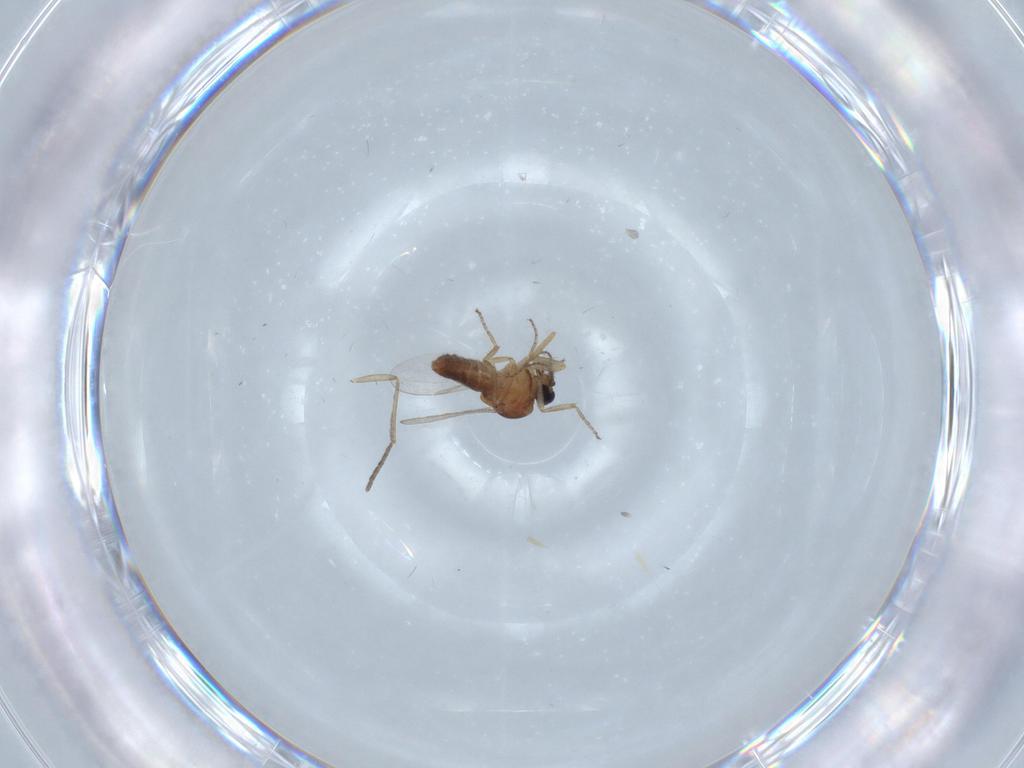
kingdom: Animalia
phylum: Arthropoda
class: Insecta
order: Diptera
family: Ceratopogonidae
